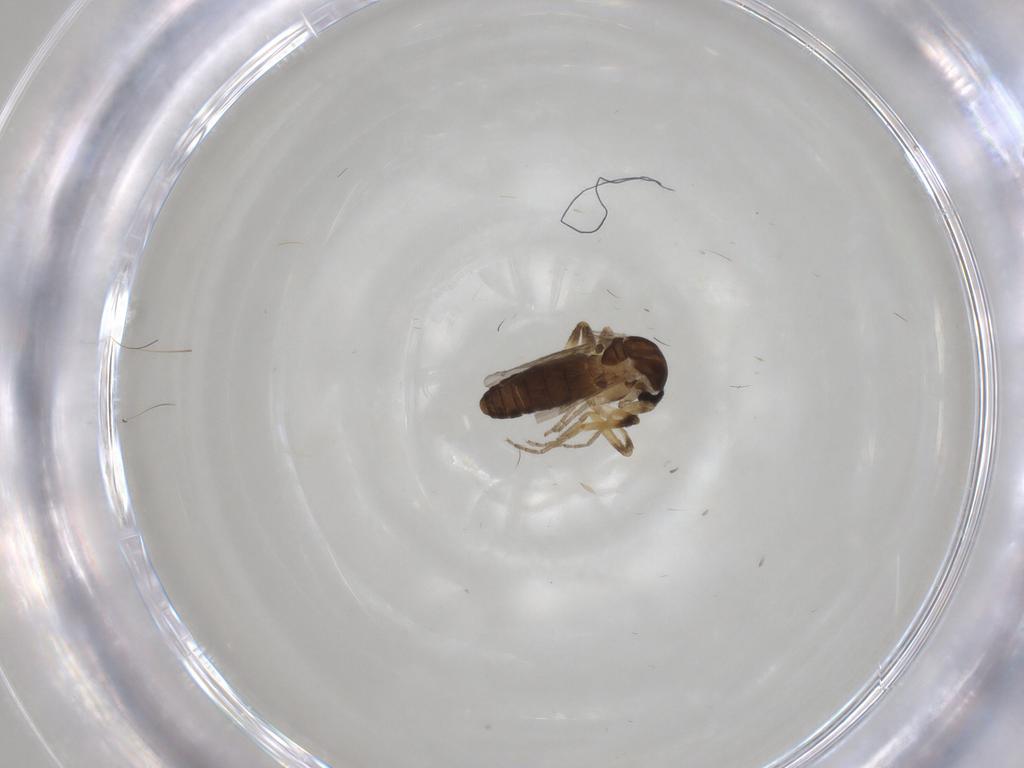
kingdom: Animalia
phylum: Arthropoda
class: Insecta
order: Diptera
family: Ceratopogonidae
